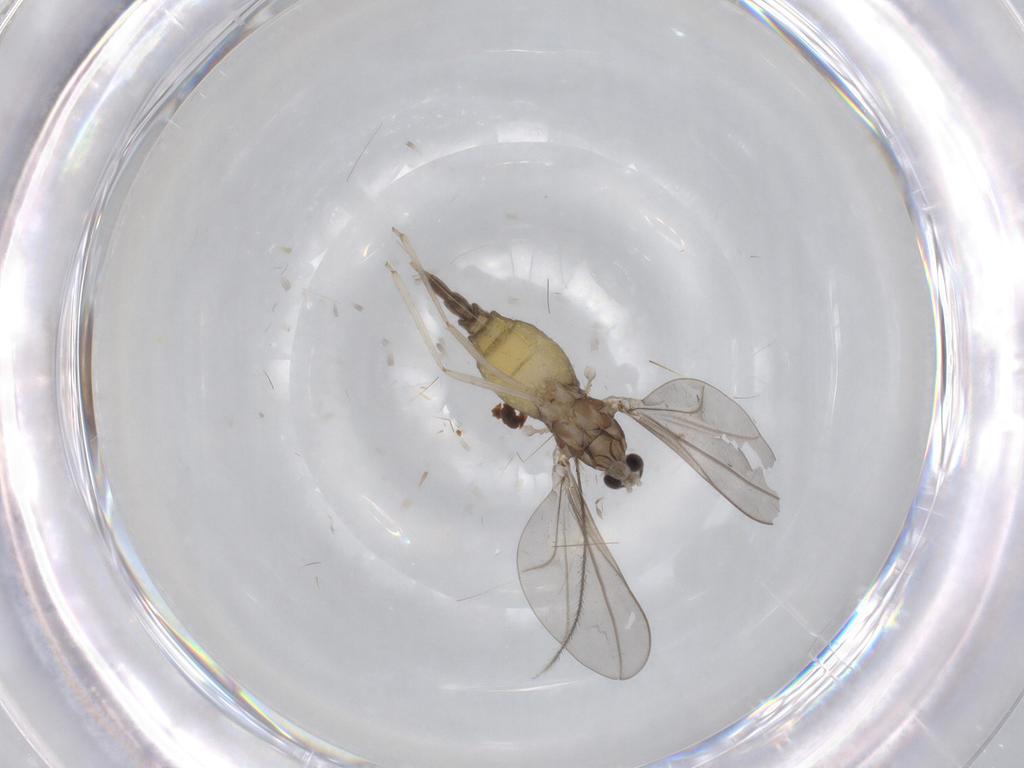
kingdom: Animalia
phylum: Arthropoda
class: Insecta
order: Diptera
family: Cecidomyiidae
